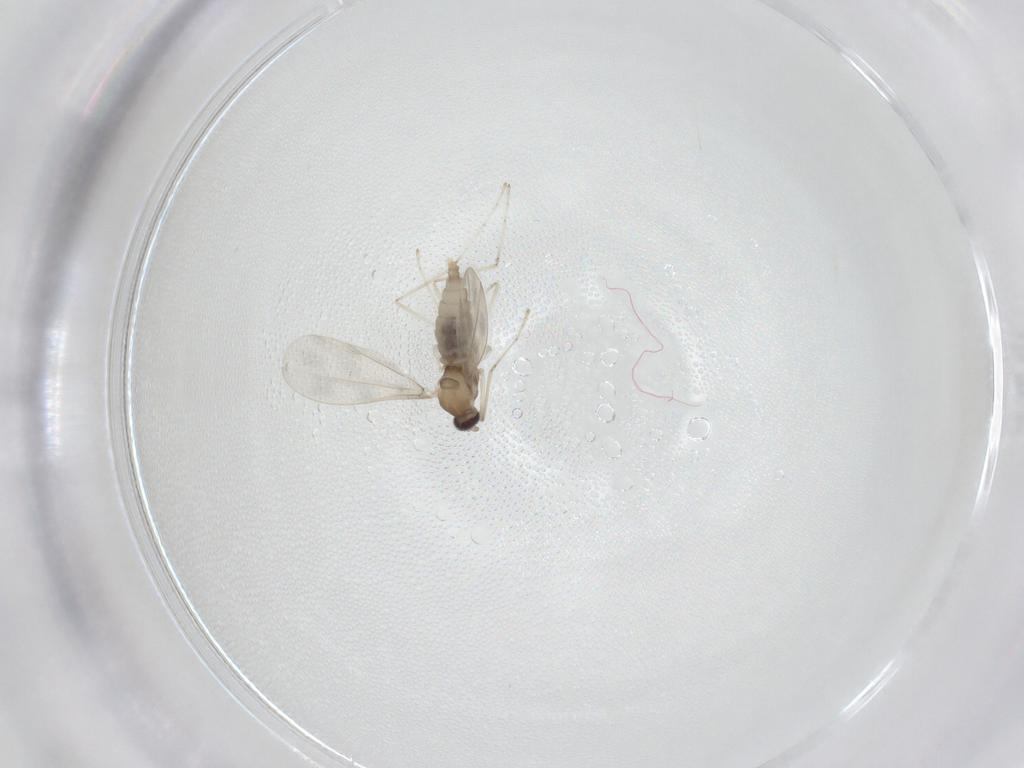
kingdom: Animalia
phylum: Arthropoda
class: Insecta
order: Diptera
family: Cecidomyiidae
